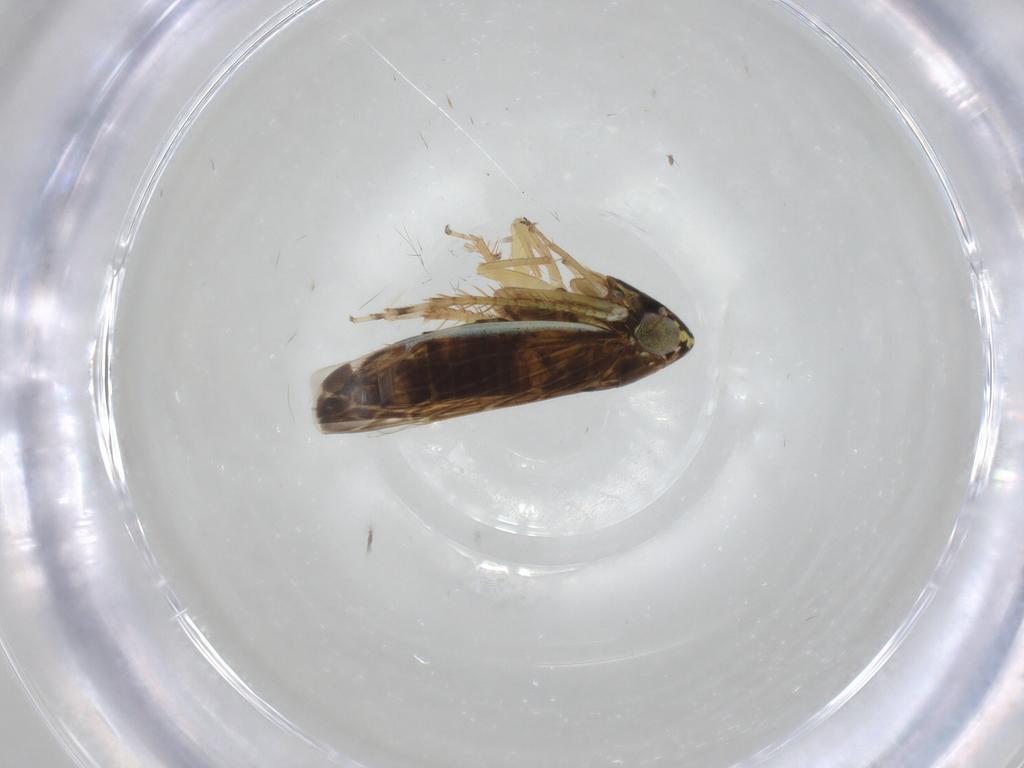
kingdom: Animalia
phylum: Arthropoda
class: Insecta
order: Hemiptera
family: Cicadellidae
